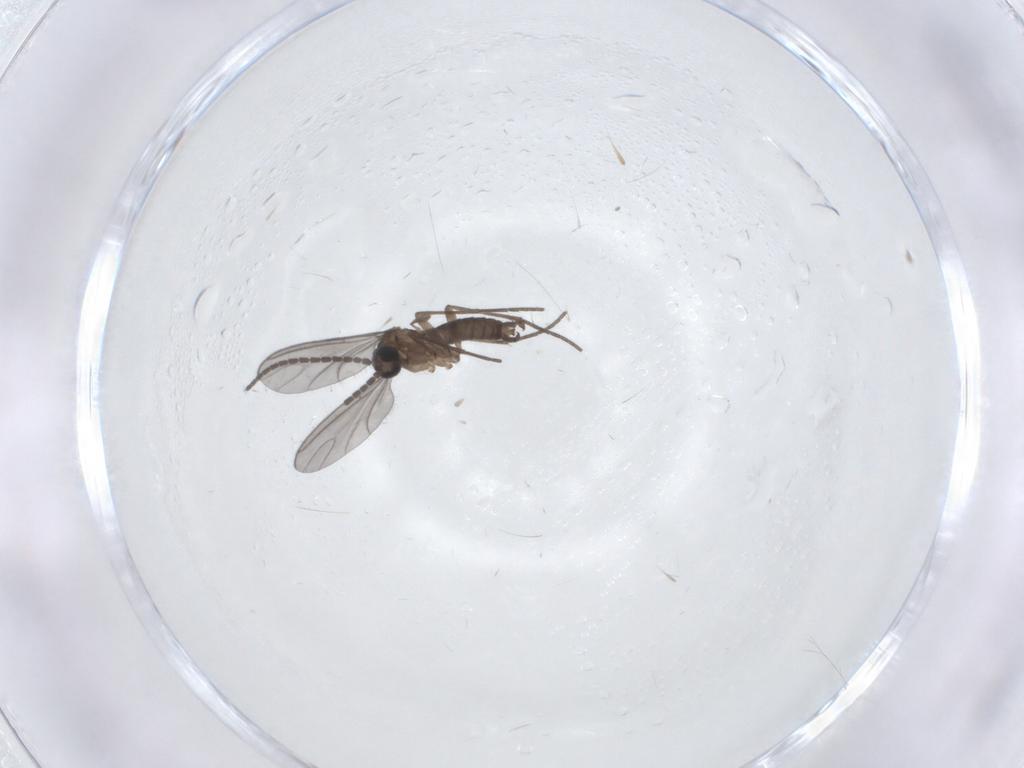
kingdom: Animalia
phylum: Arthropoda
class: Insecta
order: Diptera
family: Sciaridae
